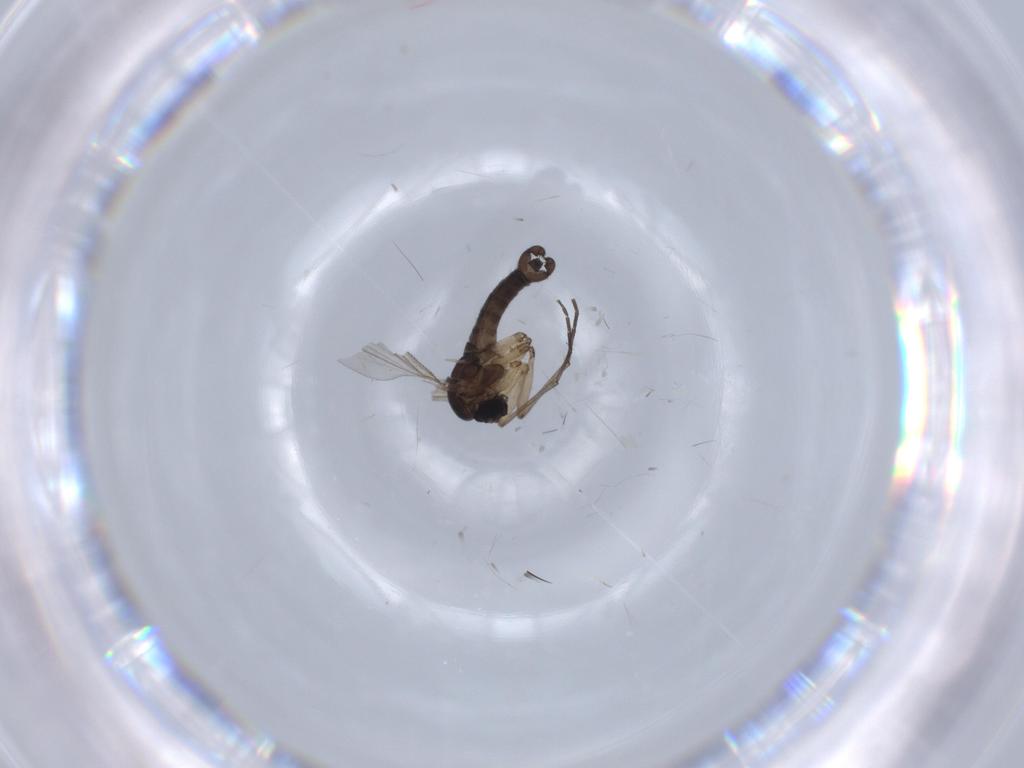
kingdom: Animalia
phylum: Arthropoda
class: Insecta
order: Diptera
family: Sciaridae
